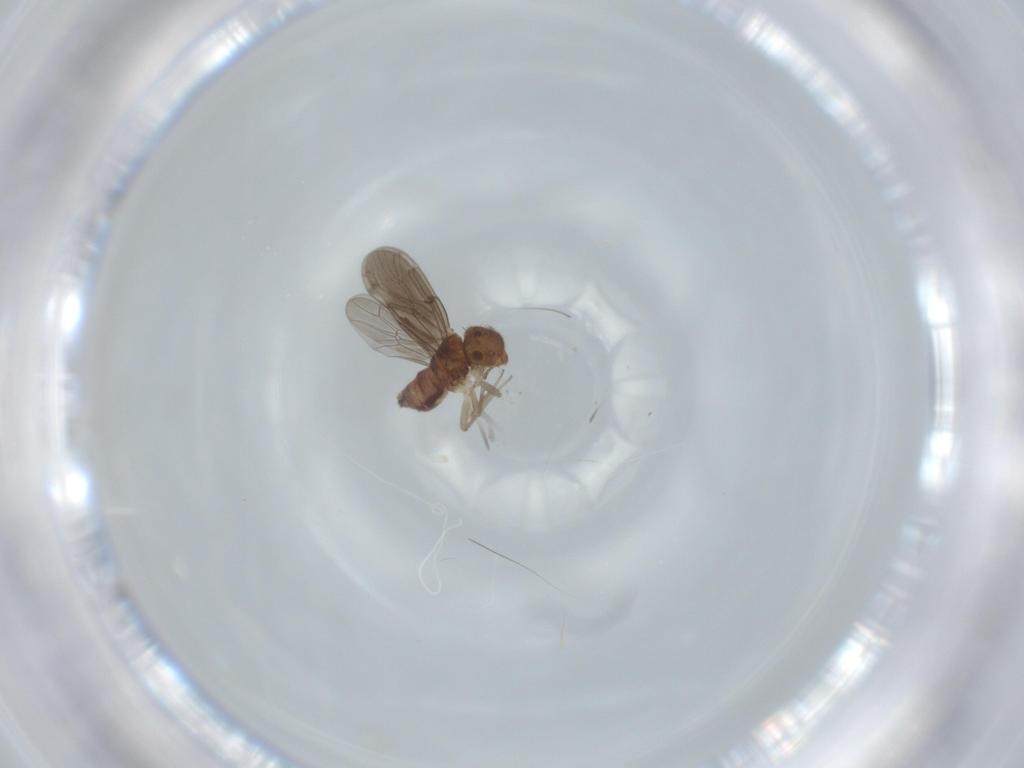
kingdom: Animalia
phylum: Arthropoda
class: Insecta
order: Psocodea
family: Ectopsocidae
